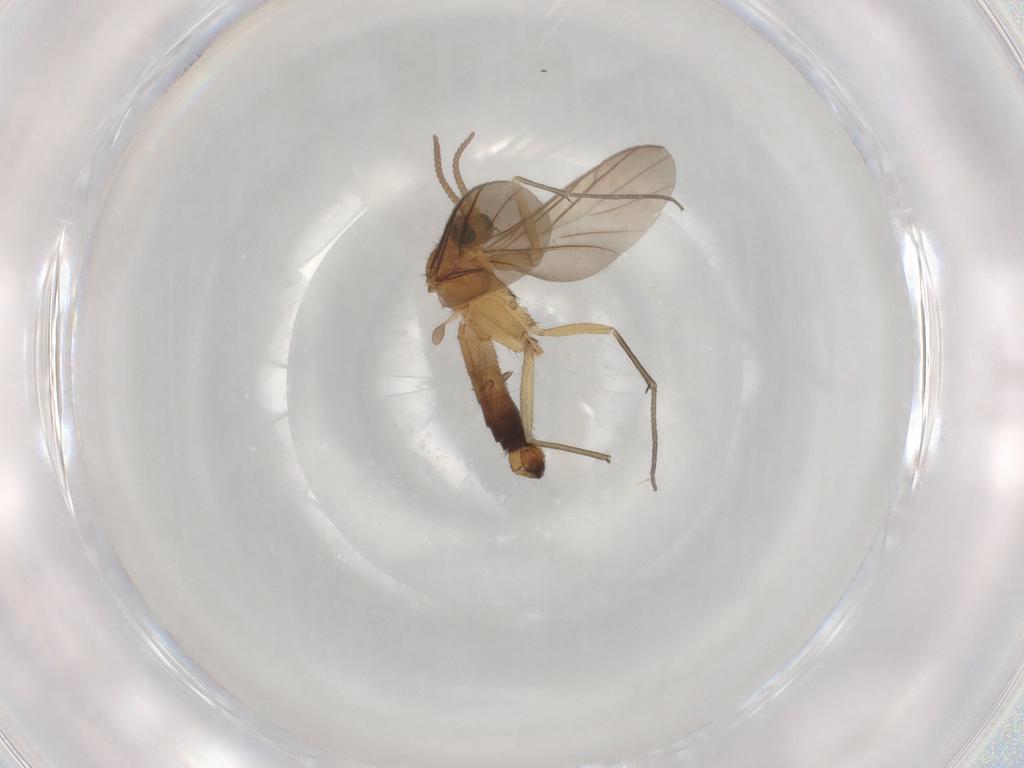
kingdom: Animalia
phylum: Arthropoda
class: Insecta
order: Diptera
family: Keroplatidae
